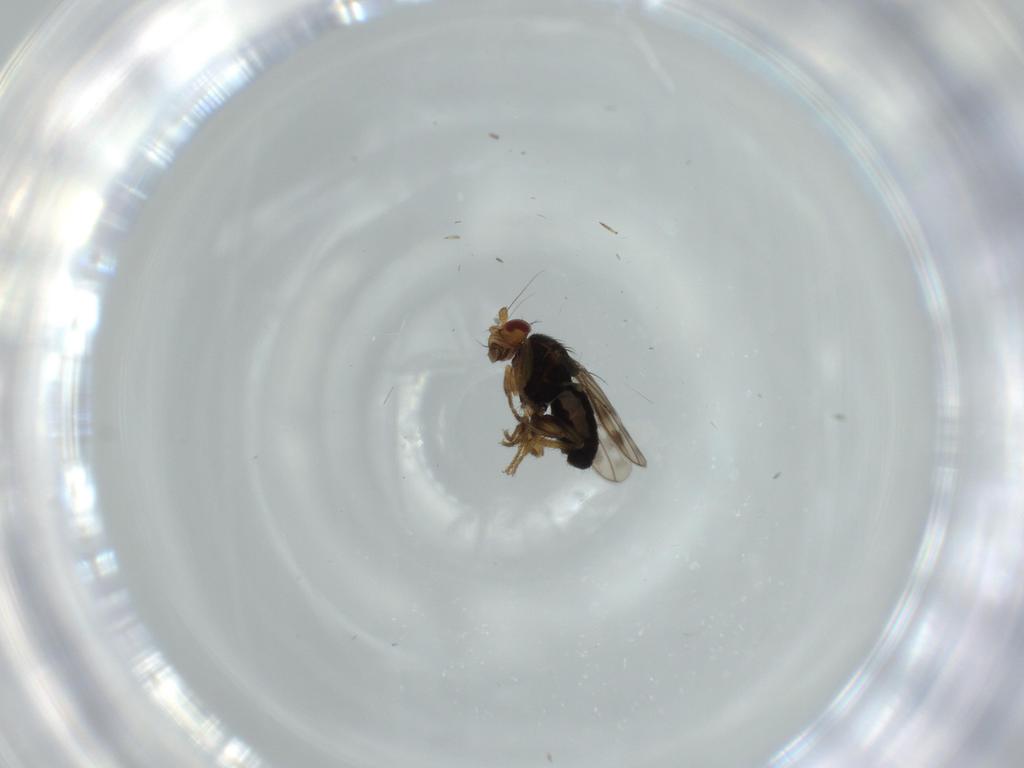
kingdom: Animalia
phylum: Arthropoda
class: Insecta
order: Diptera
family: Sphaeroceridae
